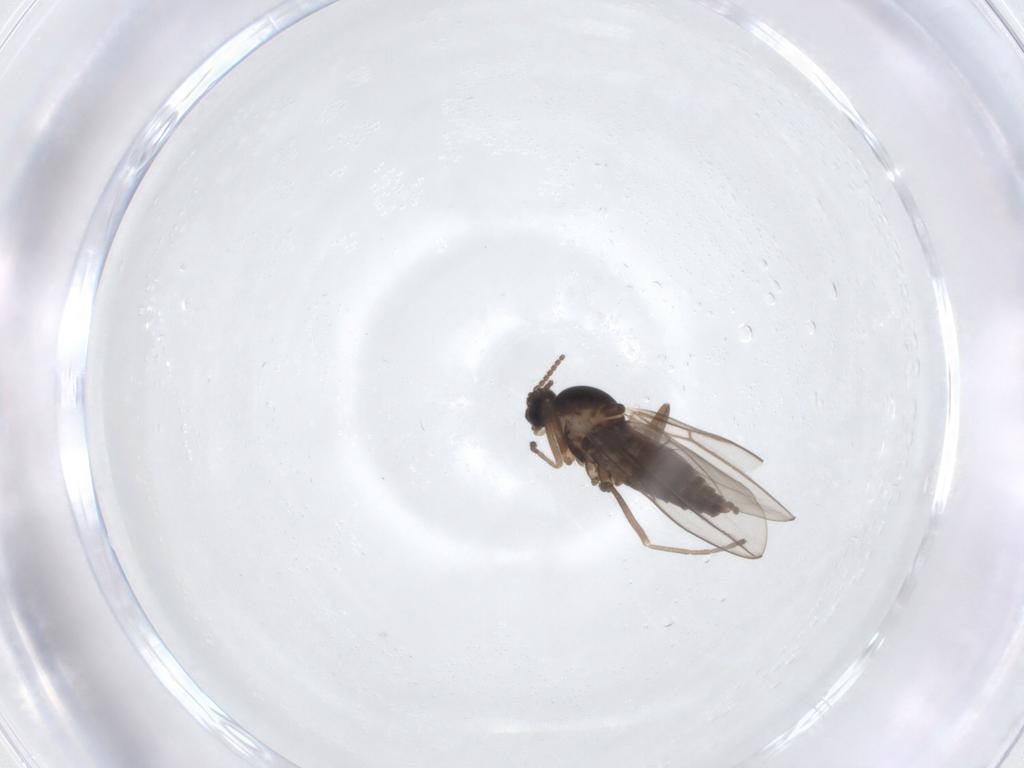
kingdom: Animalia
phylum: Arthropoda
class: Insecta
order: Diptera
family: Cecidomyiidae
